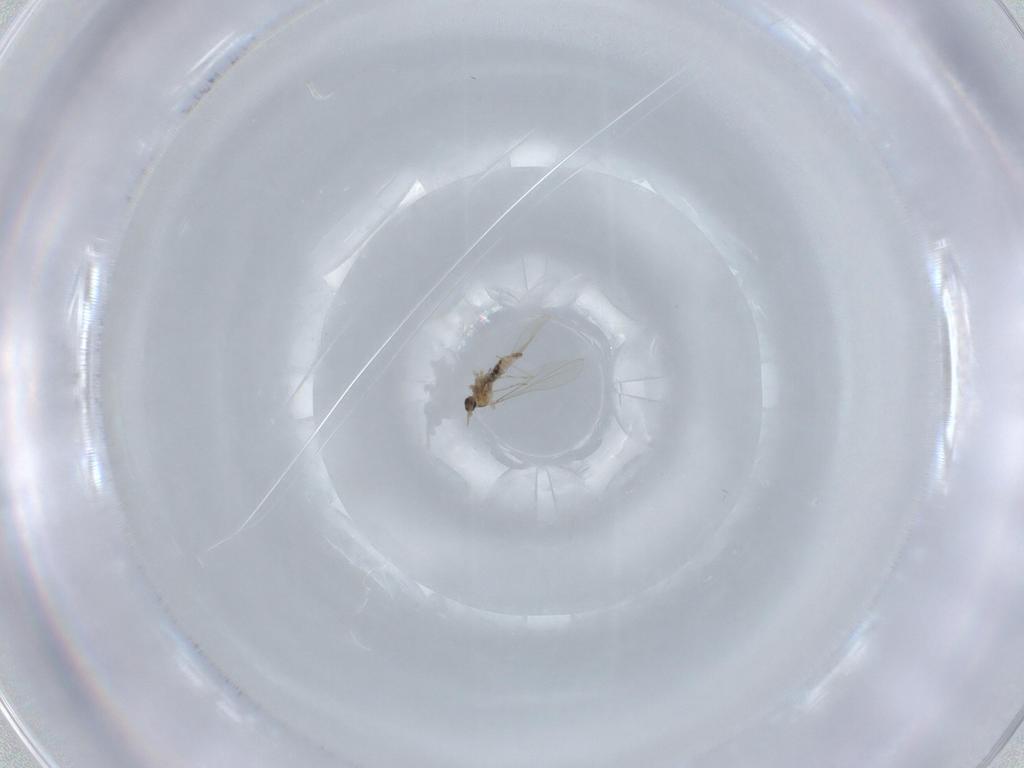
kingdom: Animalia
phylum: Arthropoda
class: Insecta
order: Diptera
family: Cecidomyiidae
